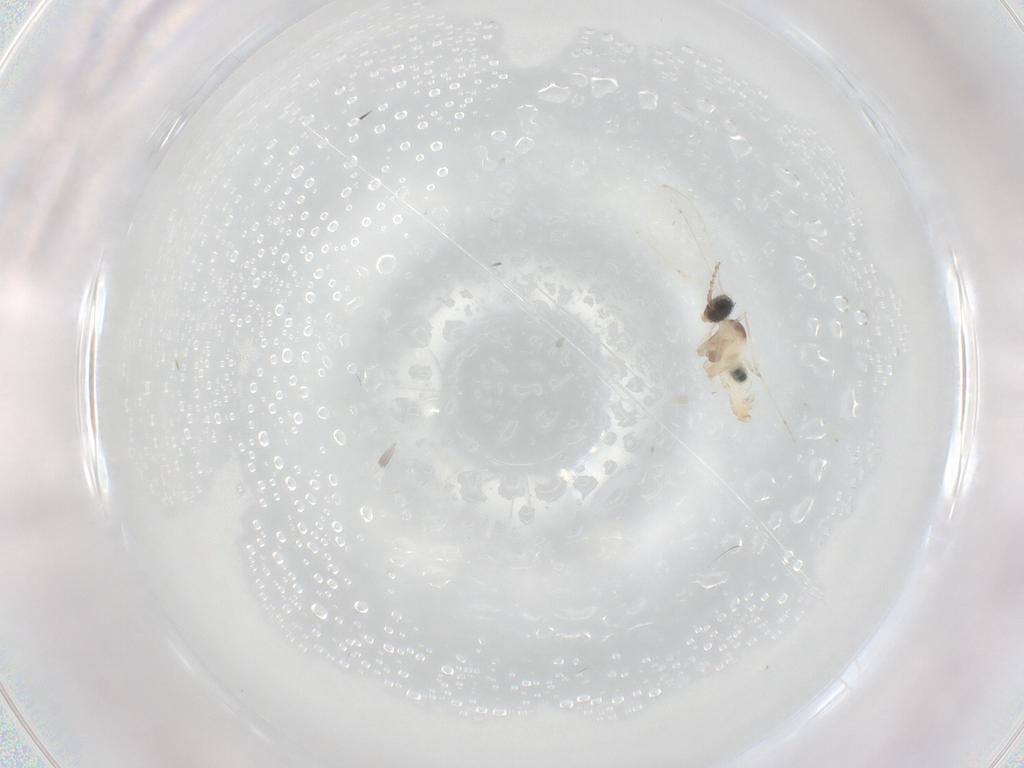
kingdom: Animalia
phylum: Arthropoda
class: Insecta
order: Diptera
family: Cecidomyiidae
